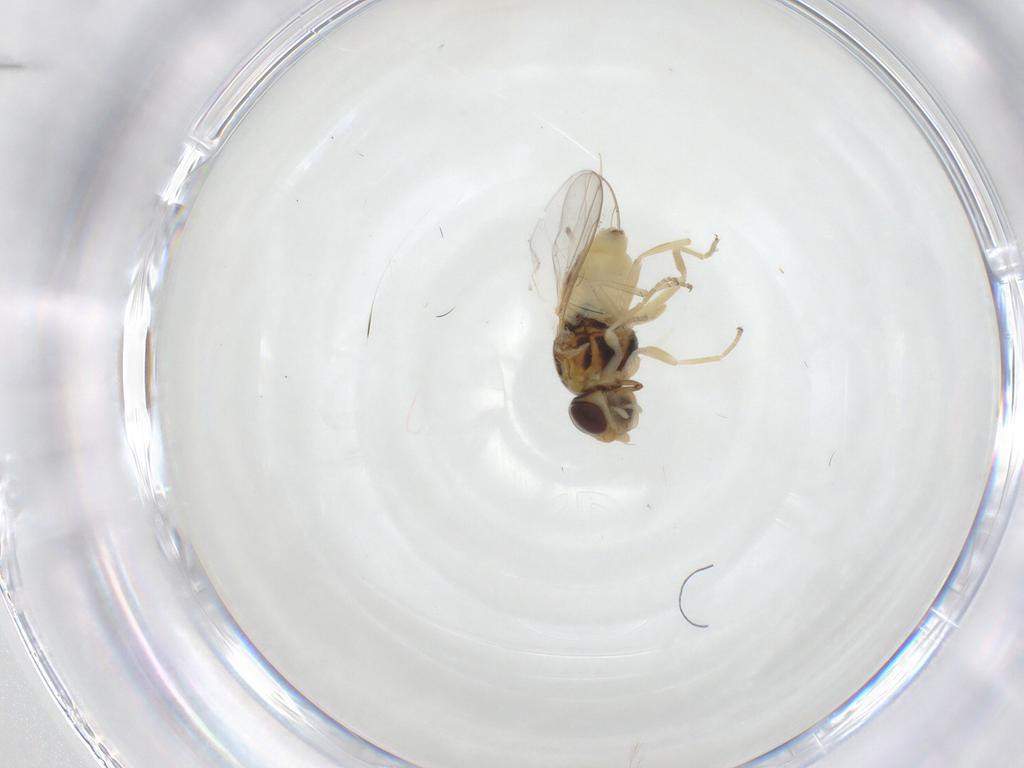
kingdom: Animalia
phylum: Arthropoda
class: Insecta
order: Diptera
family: Chloropidae
